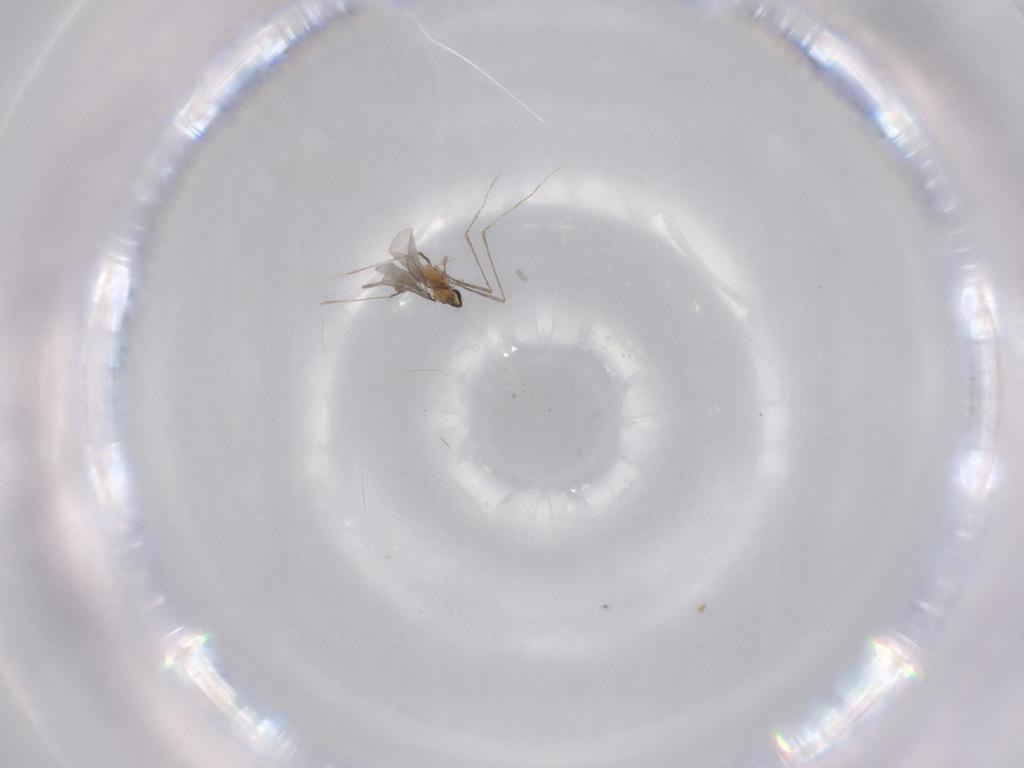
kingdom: Animalia
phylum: Arthropoda
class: Insecta
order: Diptera
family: Cecidomyiidae
